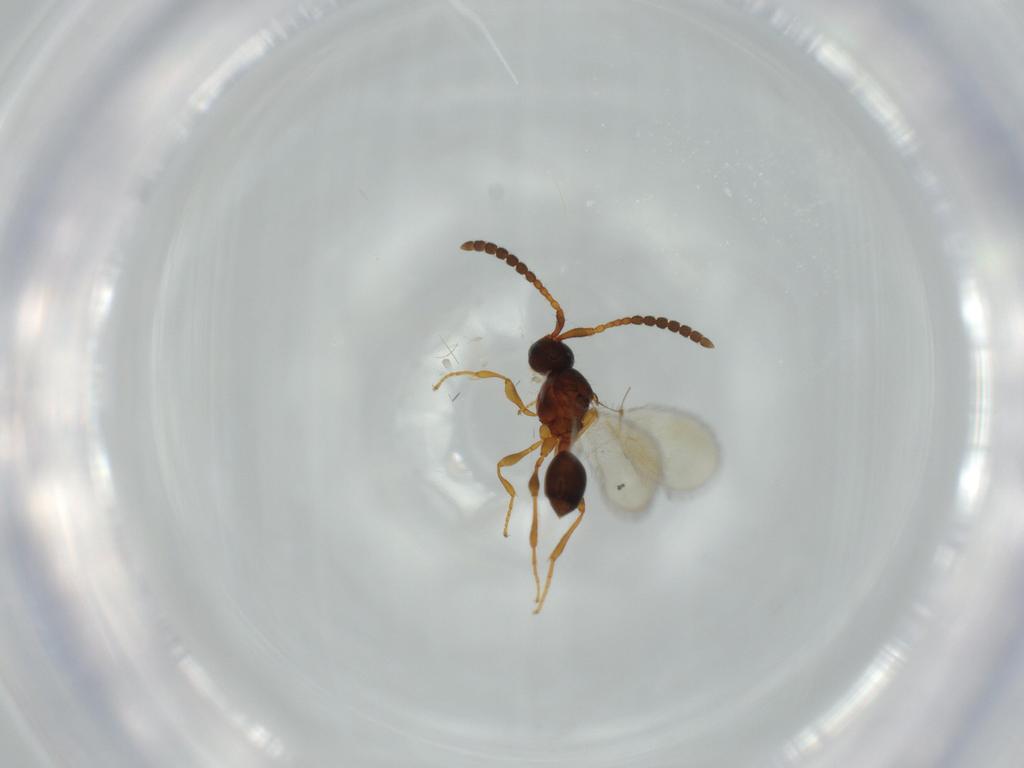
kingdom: Animalia
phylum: Arthropoda
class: Insecta
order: Hymenoptera
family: Diapriidae
